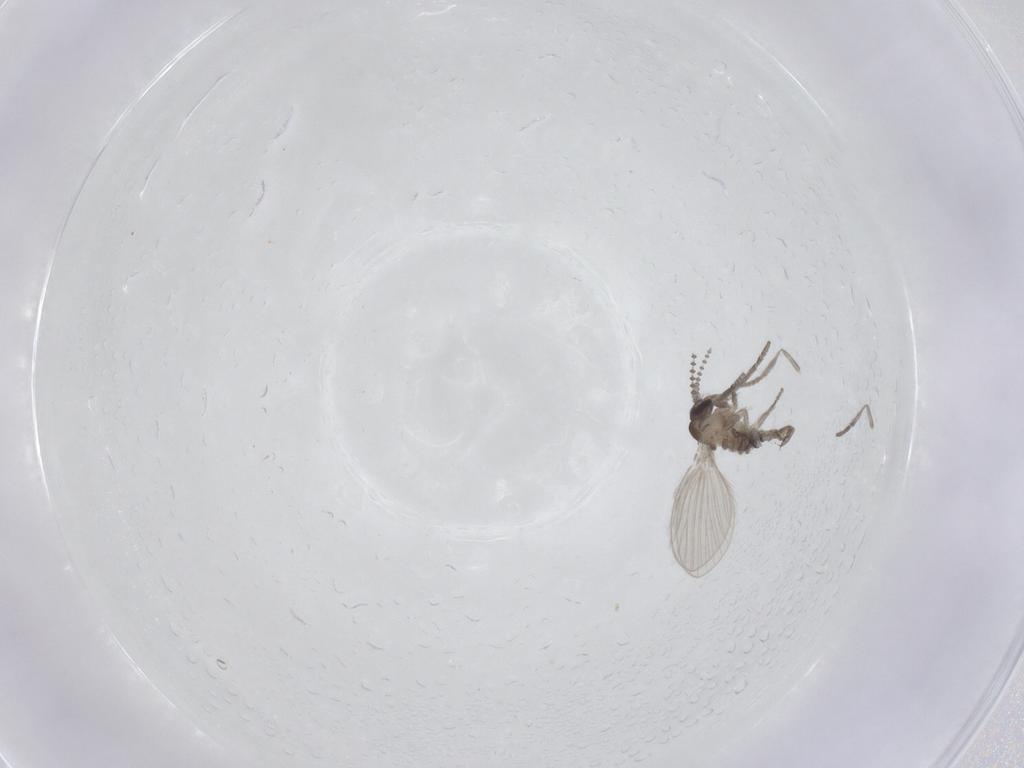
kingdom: Animalia
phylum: Arthropoda
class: Insecta
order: Diptera
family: Psychodidae
